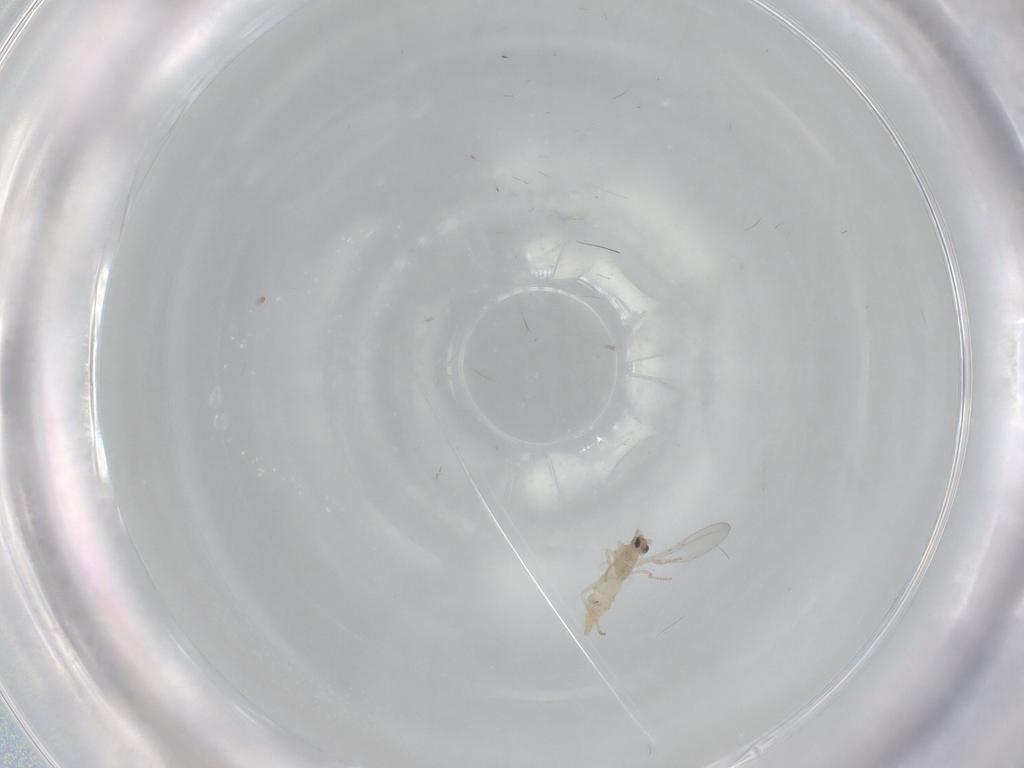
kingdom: Animalia
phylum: Arthropoda
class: Insecta
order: Diptera
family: Cecidomyiidae
